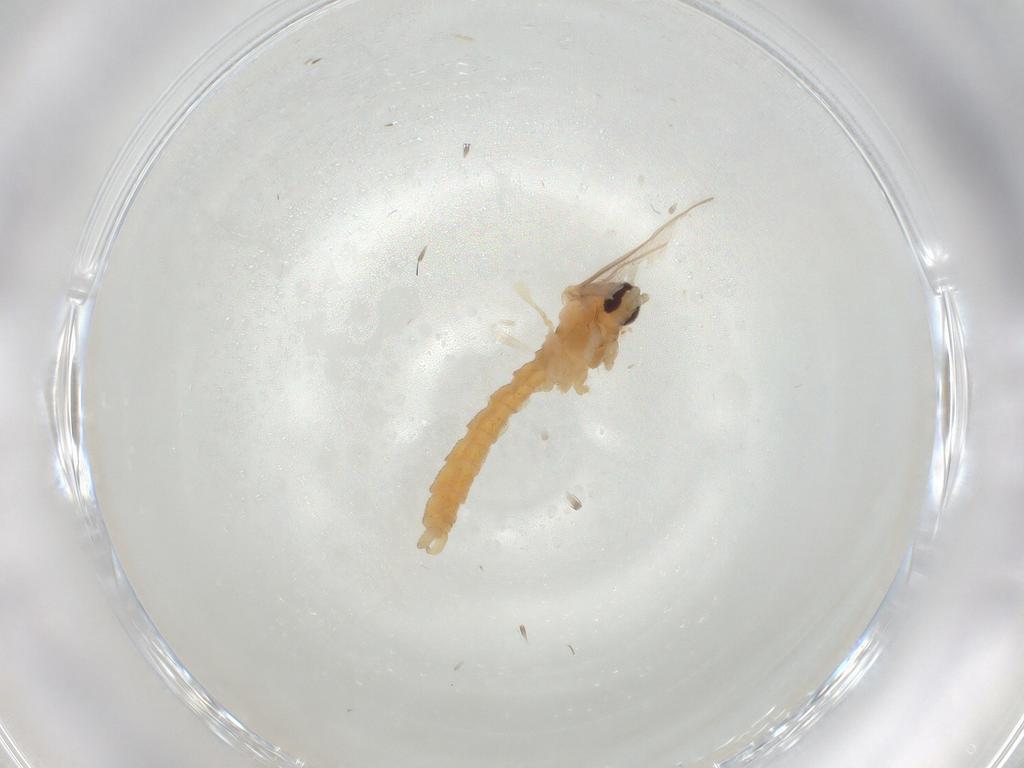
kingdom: Animalia
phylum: Arthropoda
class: Insecta
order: Diptera
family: Cecidomyiidae
